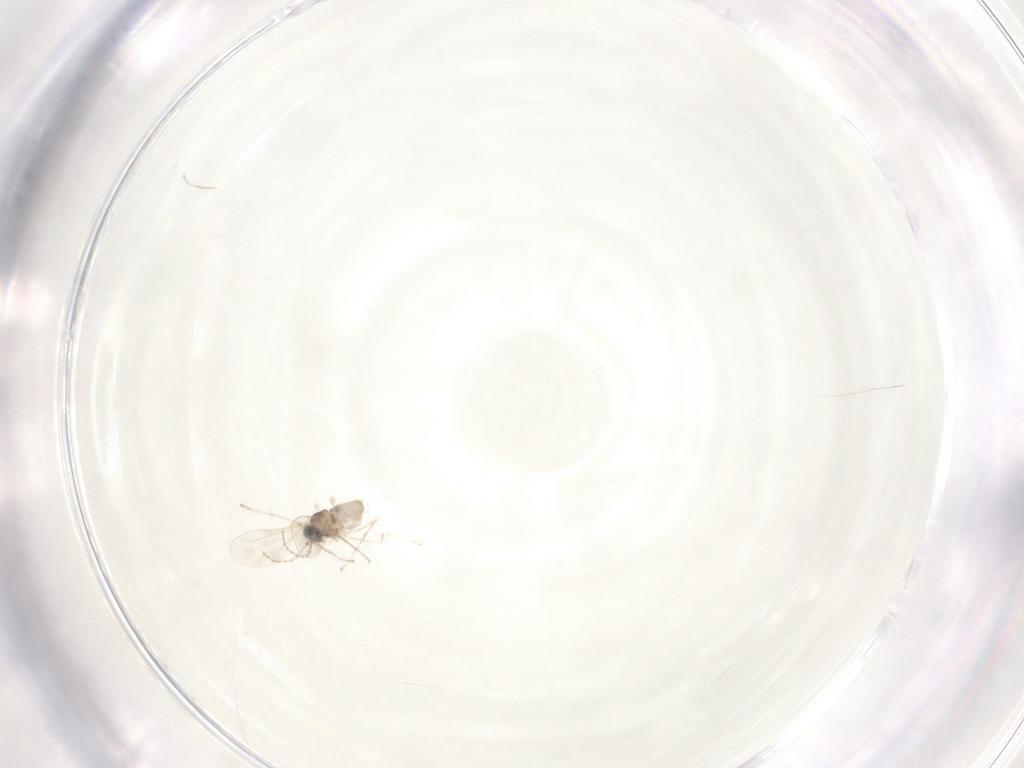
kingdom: Animalia
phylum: Arthropoda
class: Insecta
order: Diptera
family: Cecidomyiidae
